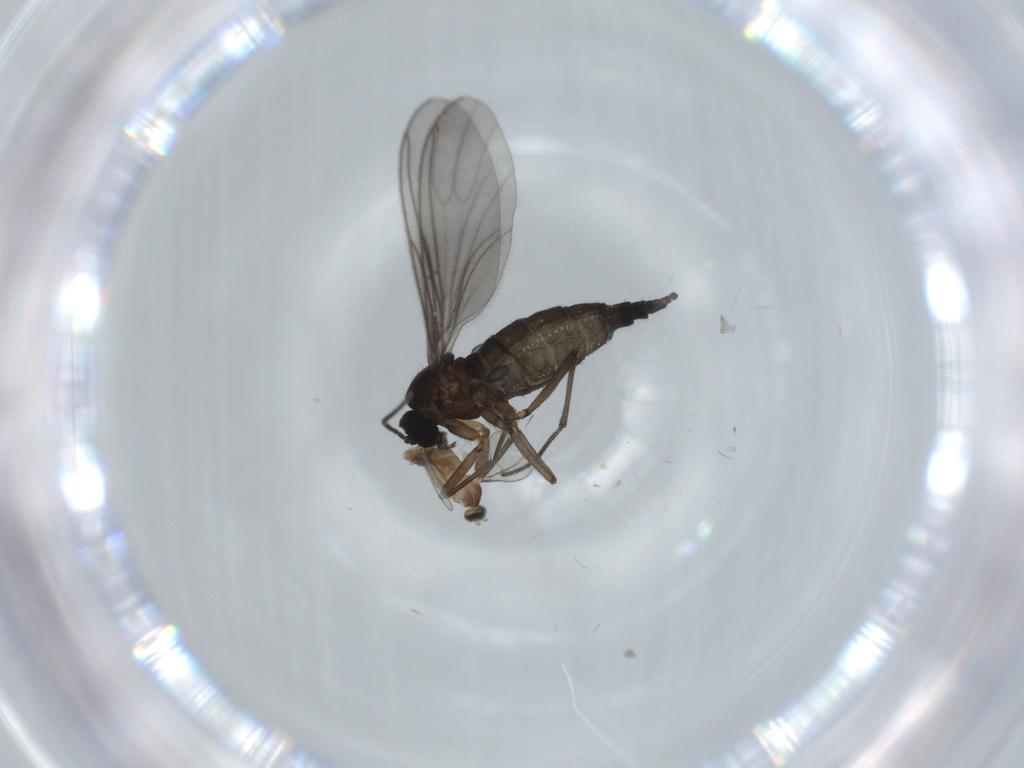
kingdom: Animalia
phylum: Arthropoda
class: Insecta
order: Diptera
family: Cecidomyiidae
